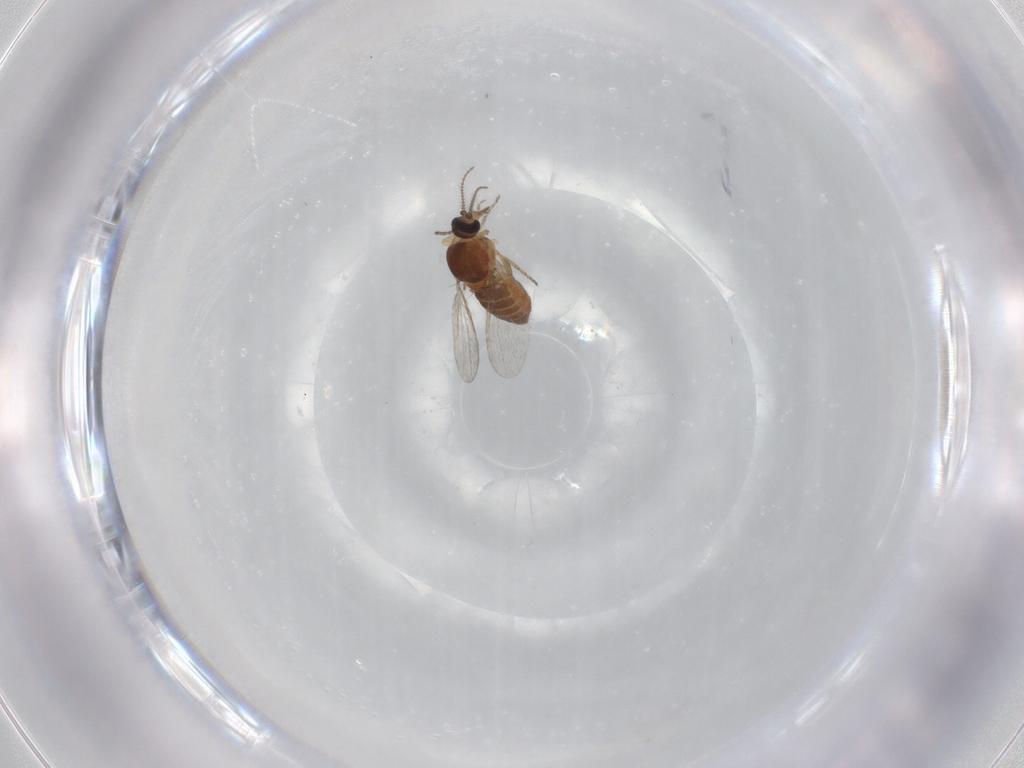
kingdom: Animalia
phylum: Arthropoda
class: Insecta
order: Diptera
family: Ceratopogonidae
